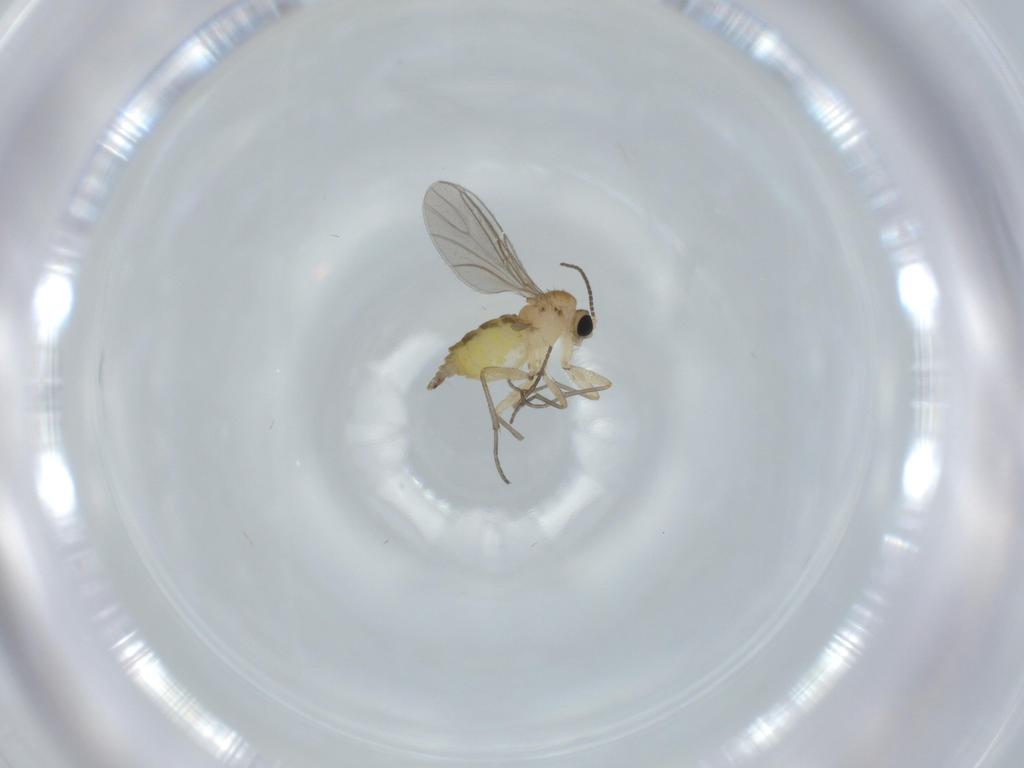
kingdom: Animalia
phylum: Arthropoda
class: Insecta
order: Diptera
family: Sciaridae
